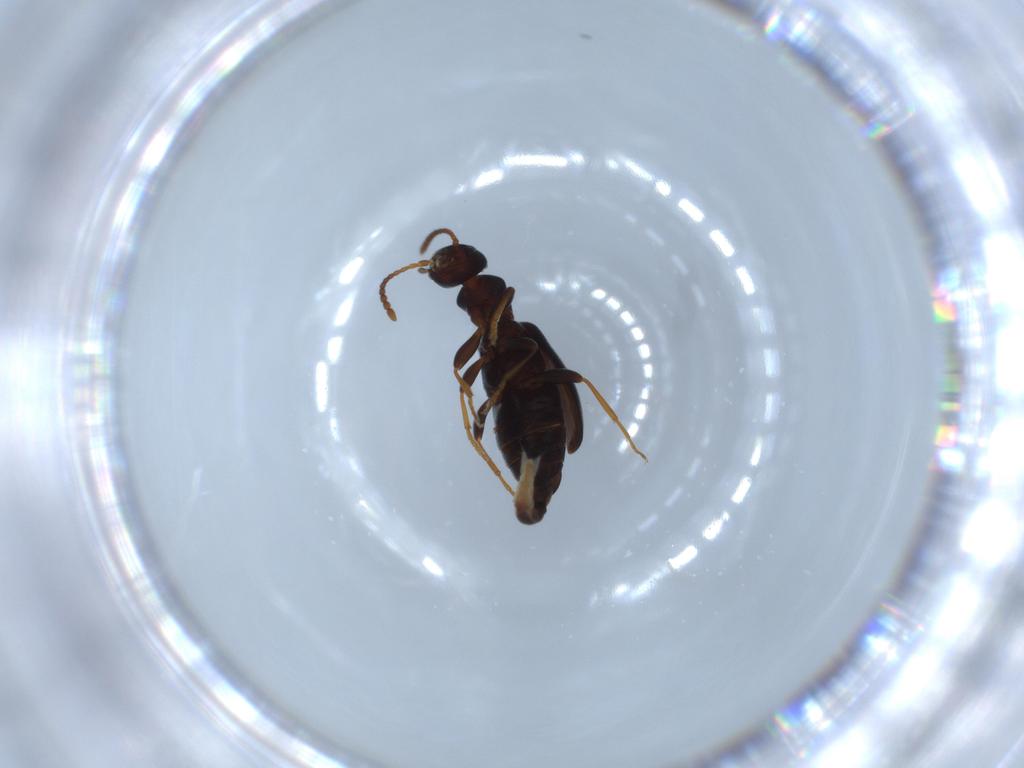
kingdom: Animalia
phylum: Arthropoda
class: Insecta
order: Coleoptera
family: Anthicidae
